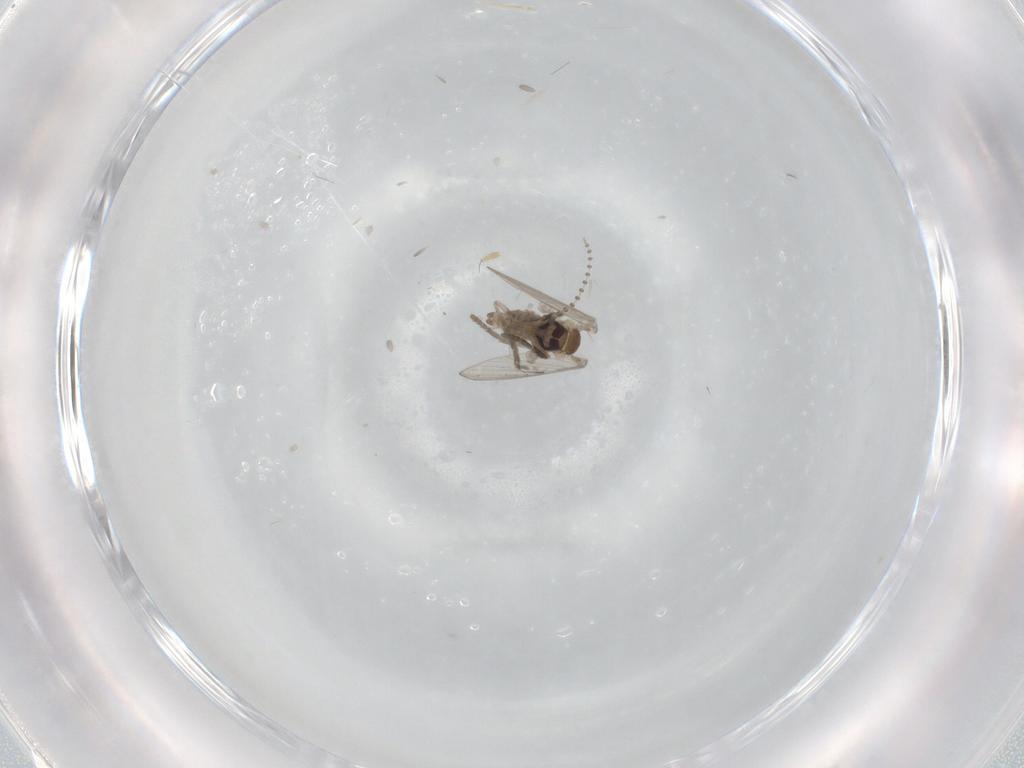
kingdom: Animalia
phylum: Arthropoda
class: Insecta
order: Diptera
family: Psychodidae
